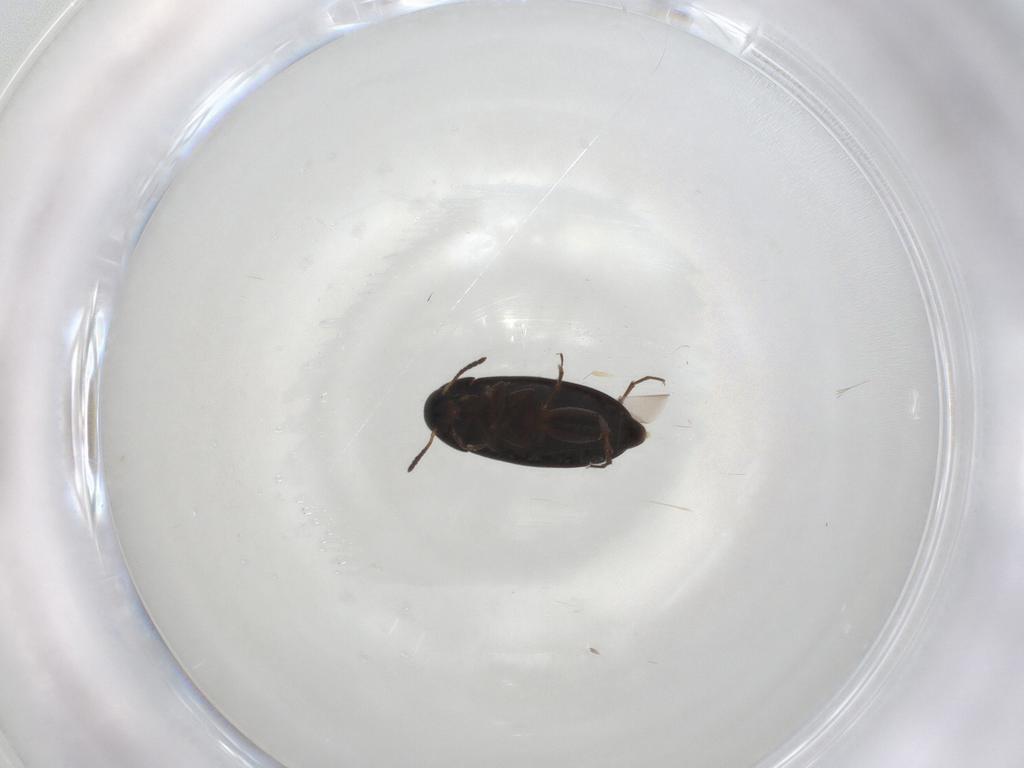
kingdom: Animalia
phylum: Arthropoda
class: Insecta
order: Coleoptera
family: Scraptiidae
